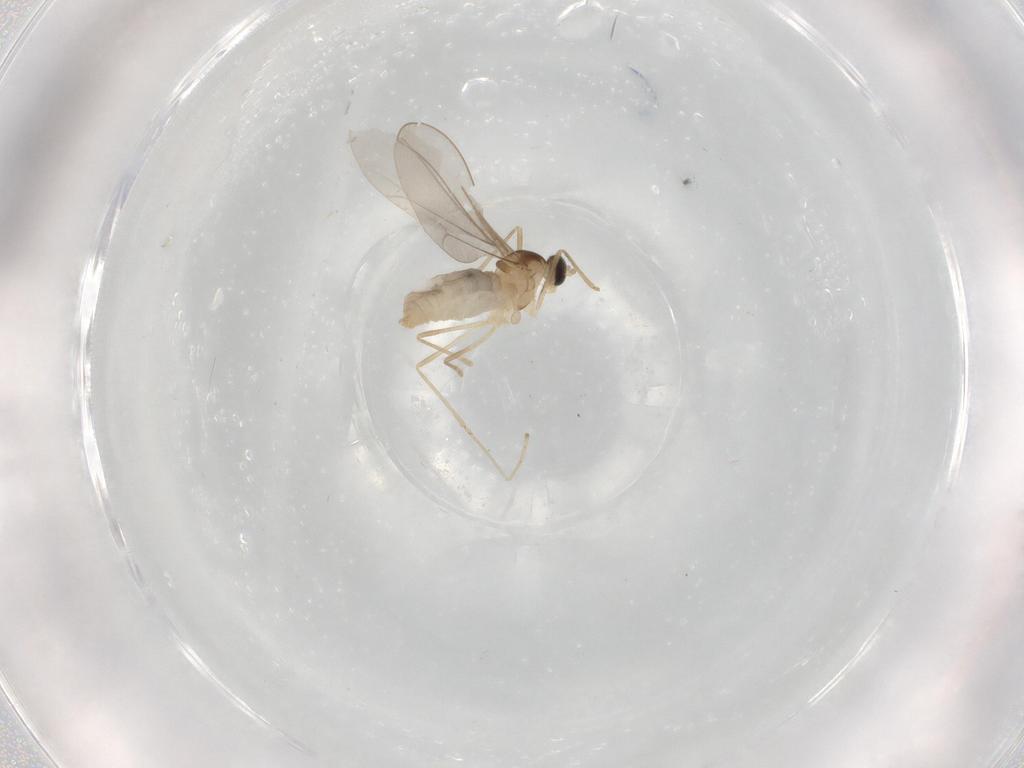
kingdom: Animalia
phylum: Arthropoda
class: Insecta
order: Diptera
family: Cecidomyiidae
